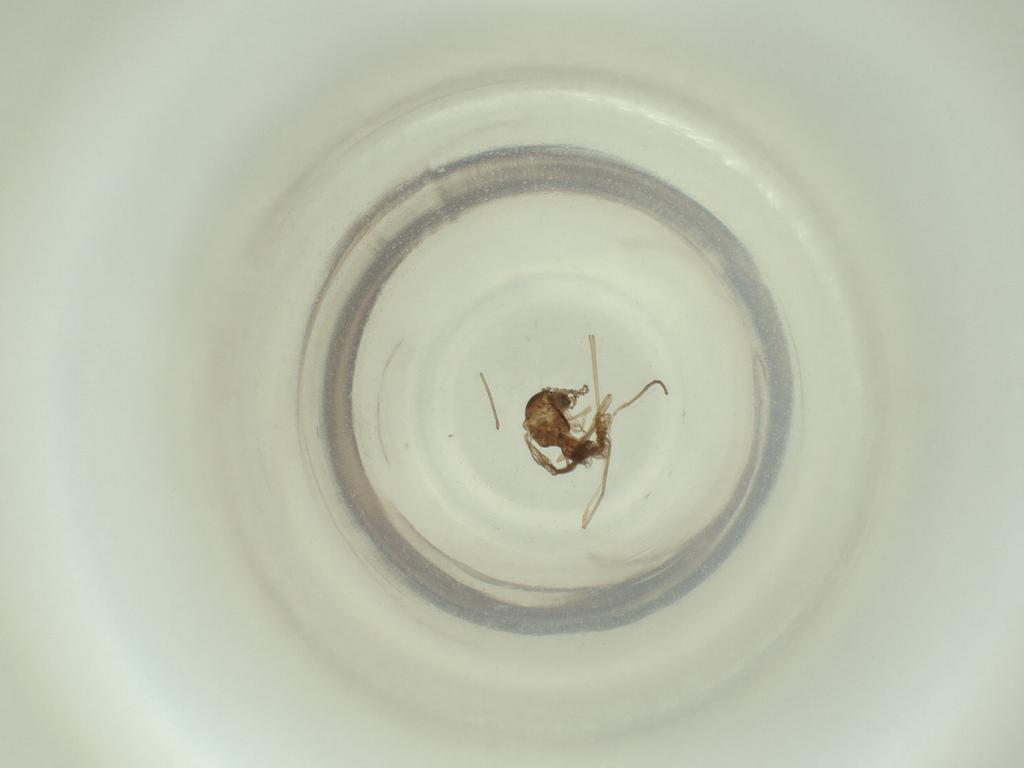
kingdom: Animalia
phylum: Arthropoda
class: Insecta
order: Diptera
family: Cecidomyiidae
